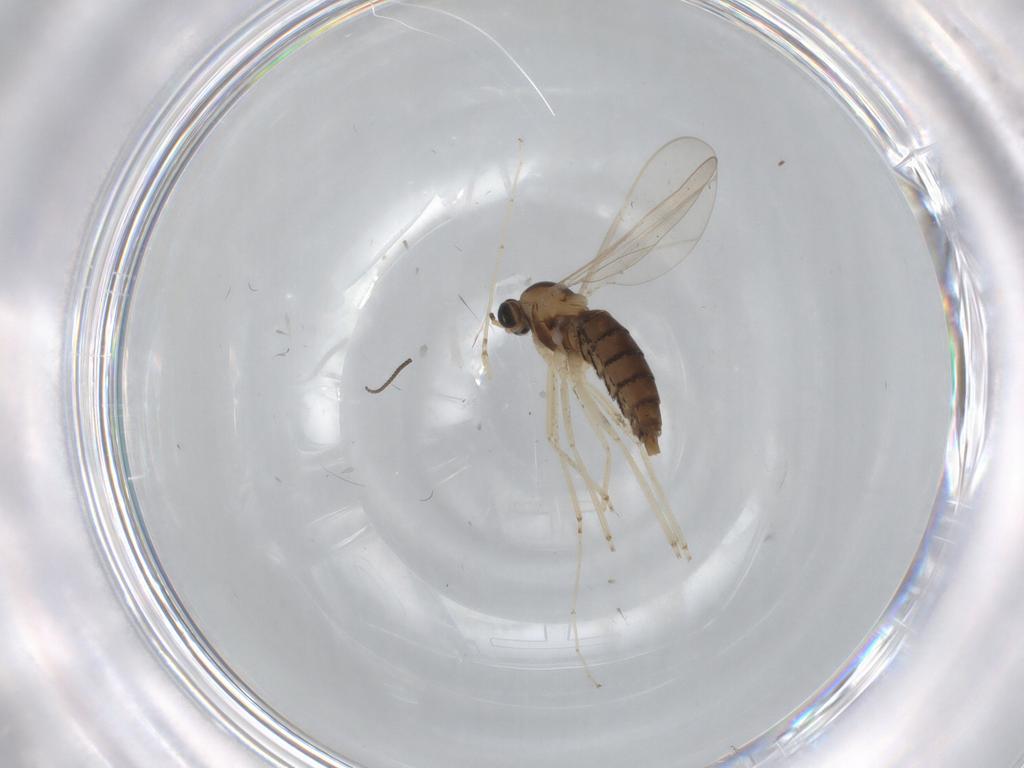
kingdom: Animalia
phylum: Arthropoda
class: Insecta
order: Diptera
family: Cecidomyiidae
